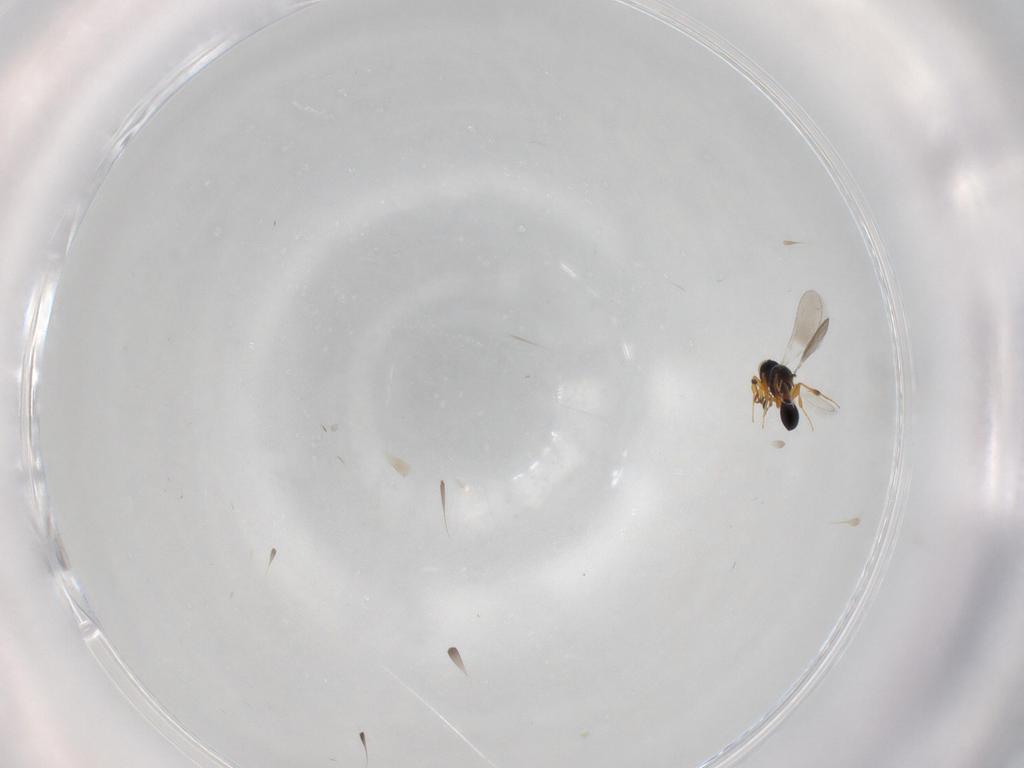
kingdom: Animalia
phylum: Arthropoda
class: Insecta
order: Hymenoptera
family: Platygastridae
